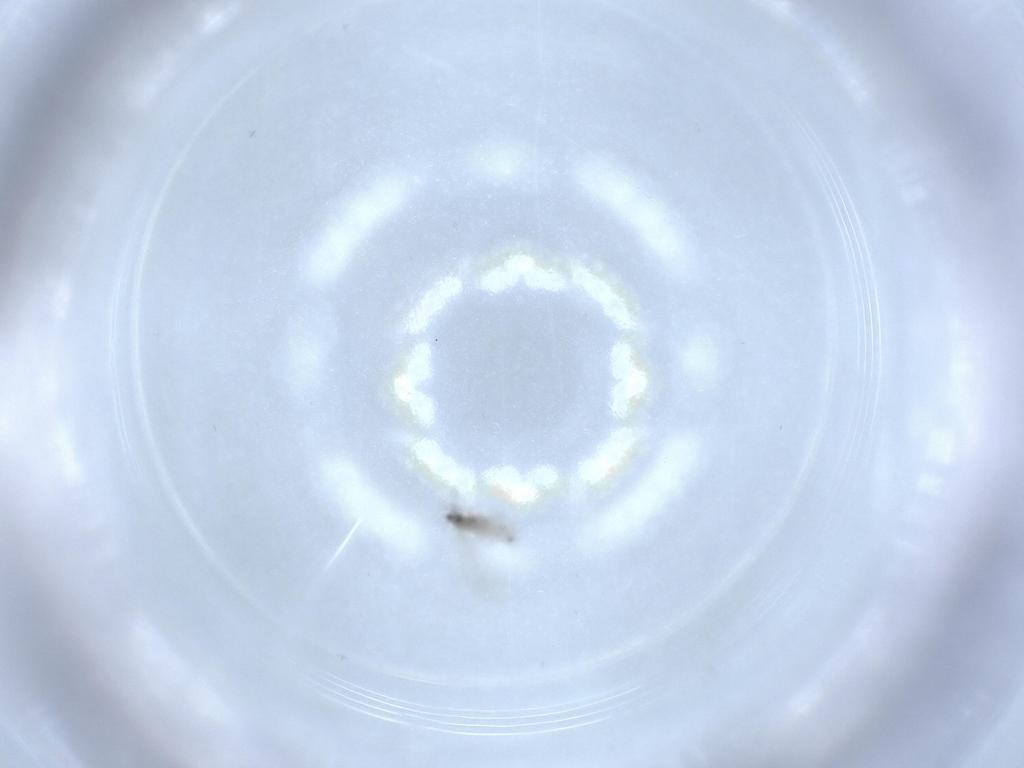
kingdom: Animalia
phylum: Arthropoda
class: Insecta
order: Diptera
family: Cecidomyiidae
